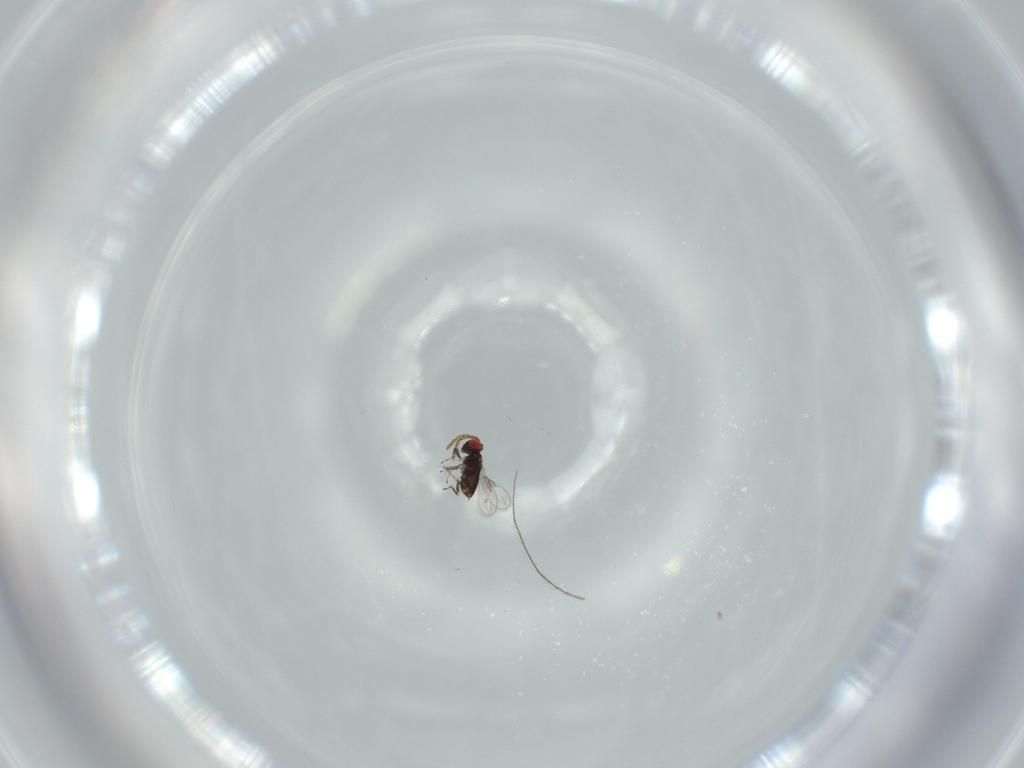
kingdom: Animalia
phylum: Arthropoda
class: Insecta
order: Hymenoptera
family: Azotidae
